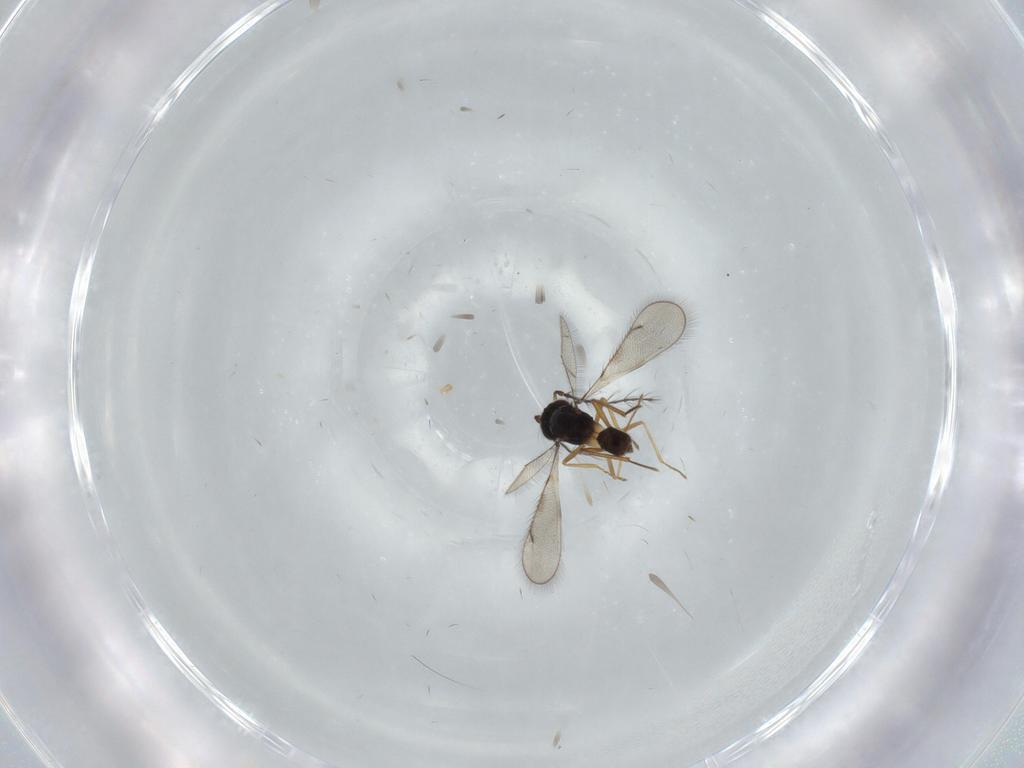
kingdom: Animalia
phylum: Arthropoda
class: Insecta
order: Hymenoptera
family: Eulophidae
